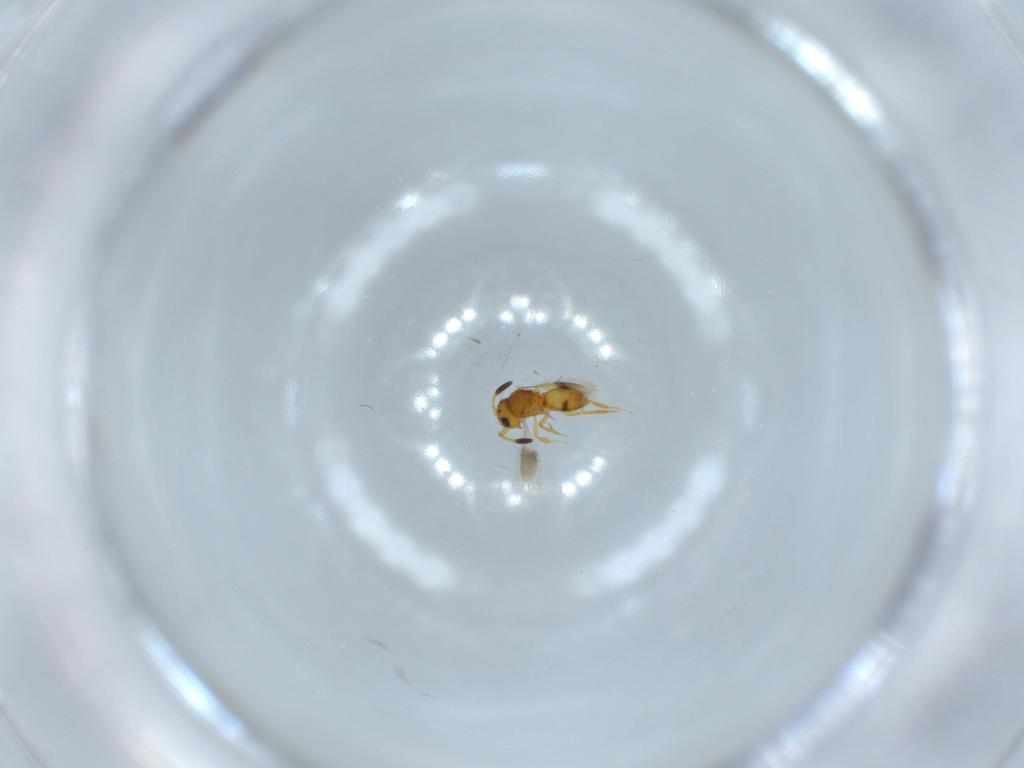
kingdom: Animalia
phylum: Arthropoda
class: Insecta
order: Hymenoptera
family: Scelionidae
